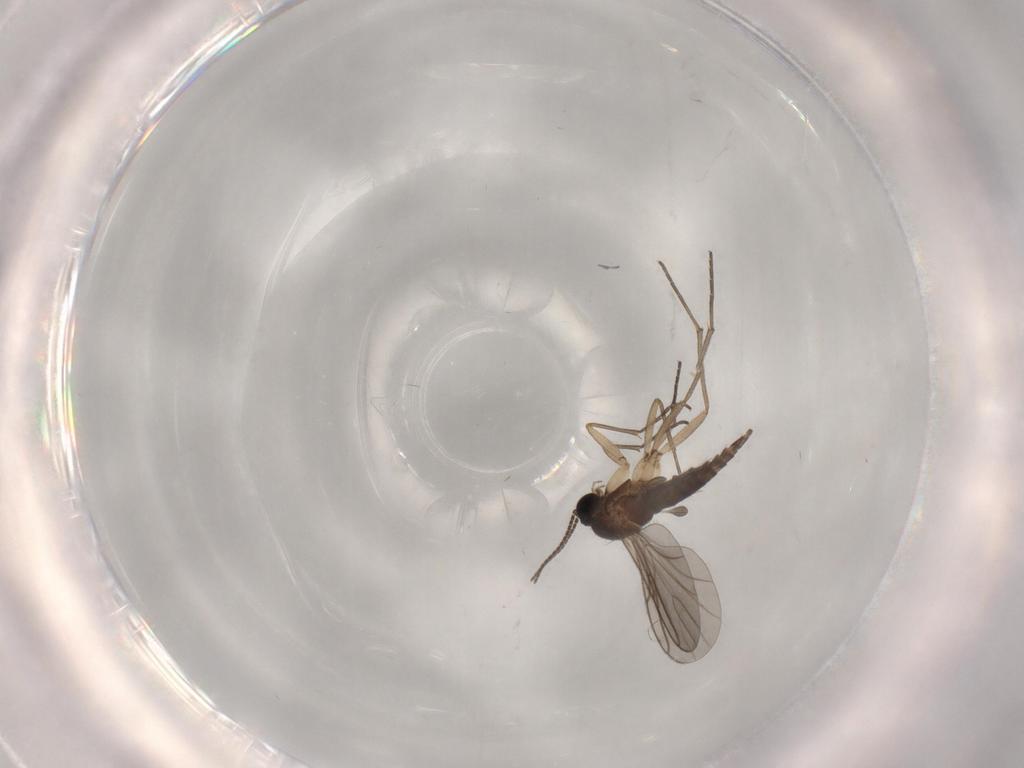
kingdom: Animalia
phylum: Arthropoda
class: Insecta
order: Diptera
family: Sciaridae
